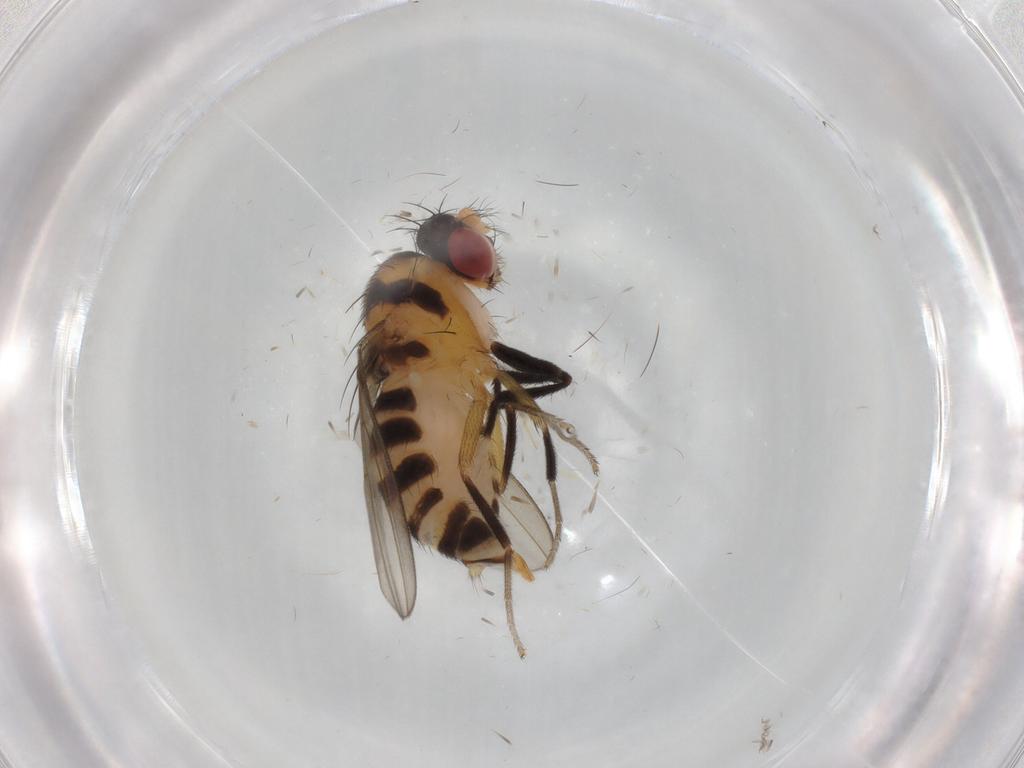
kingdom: Animalia
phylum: Arthropoda
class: Insecta
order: Diptera
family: Drosophilidae
